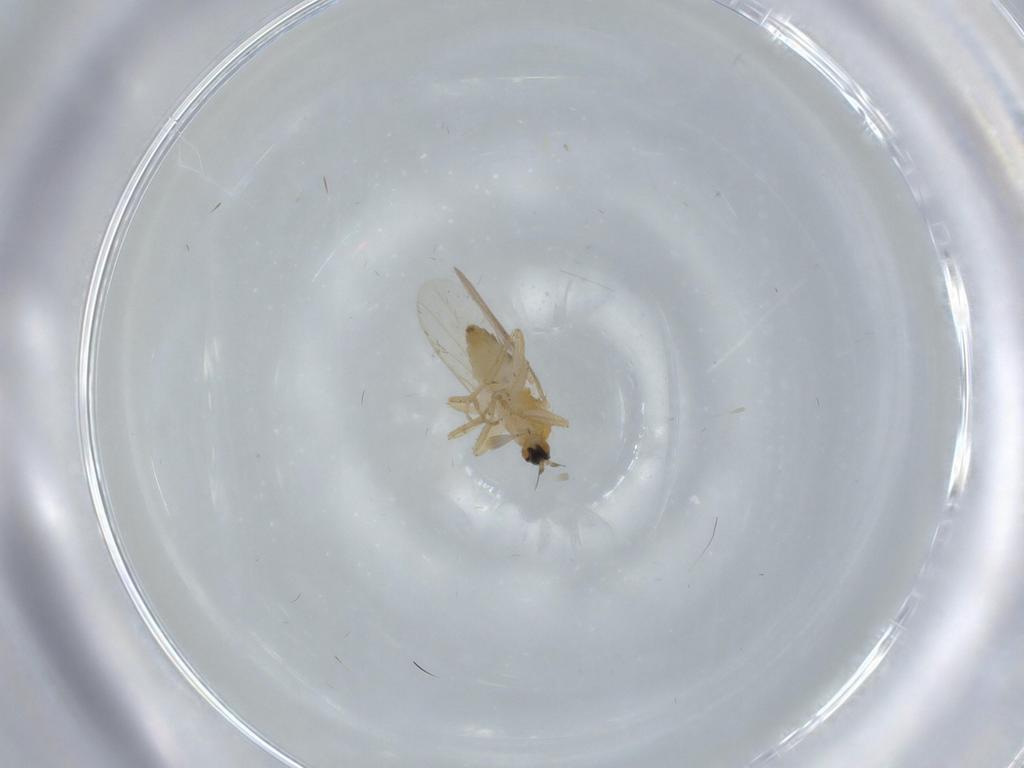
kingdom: Animalia
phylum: Arthropoda
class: Insecta
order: Diptera
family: Hybotidae
